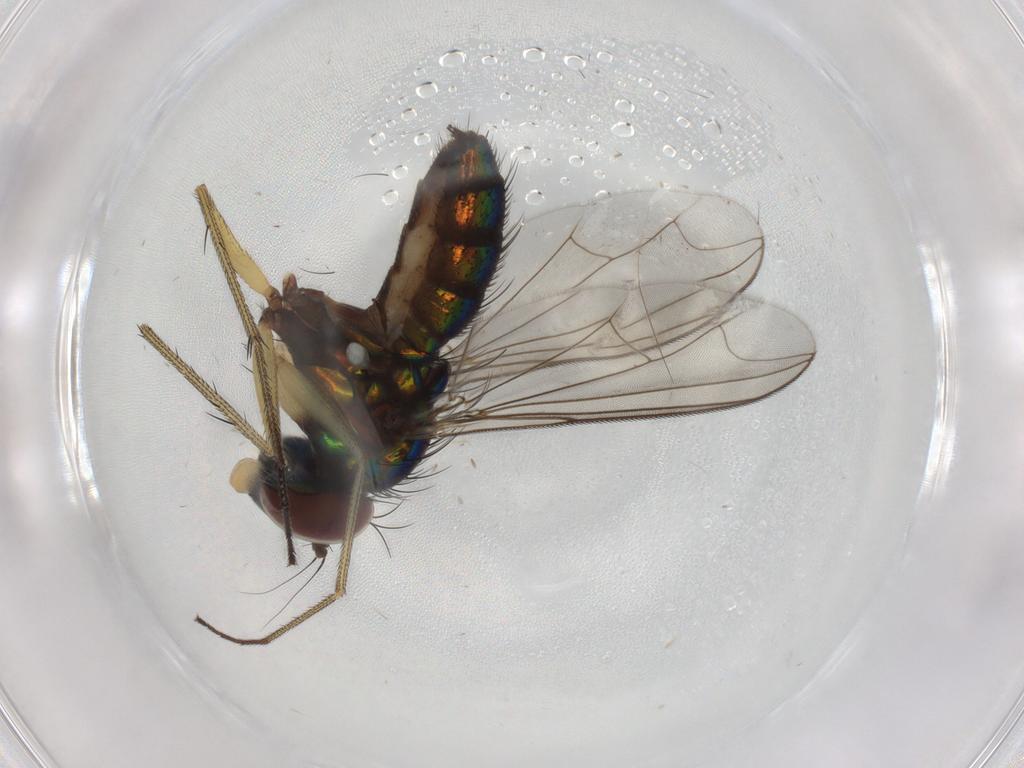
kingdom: Animalia
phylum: Arthropoda
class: Insecta
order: Diptera
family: Dolichopodidae
